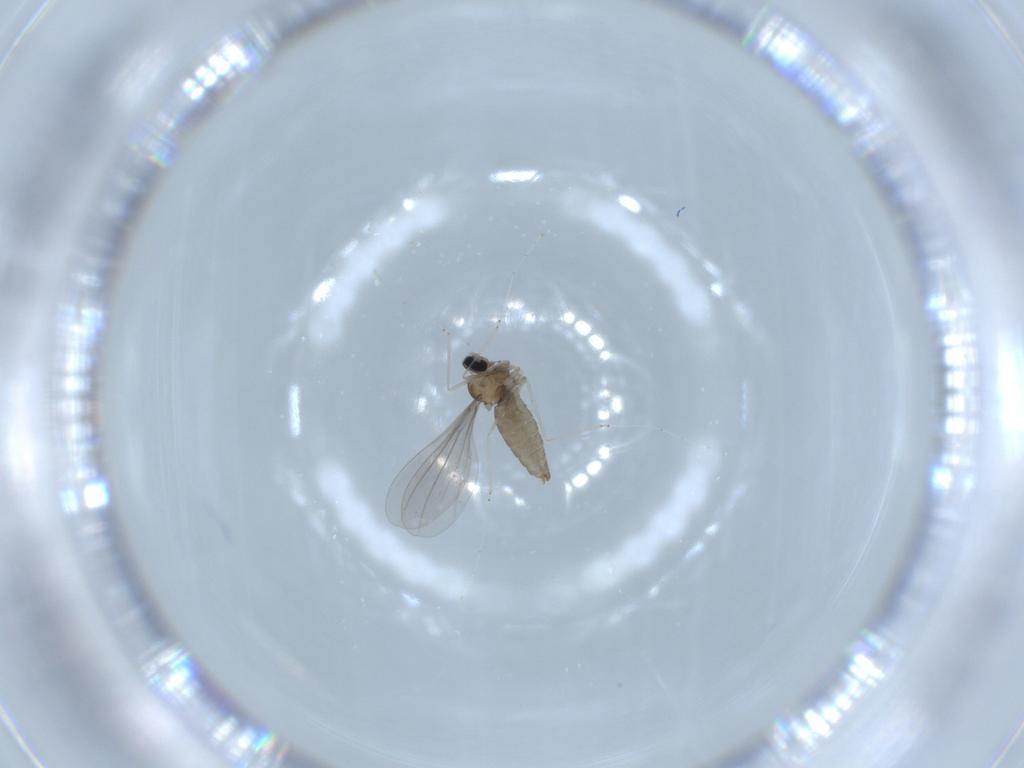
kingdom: Animalia
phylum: Arthropoda
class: Insecta
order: Diptera
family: Cecidomyiidae
